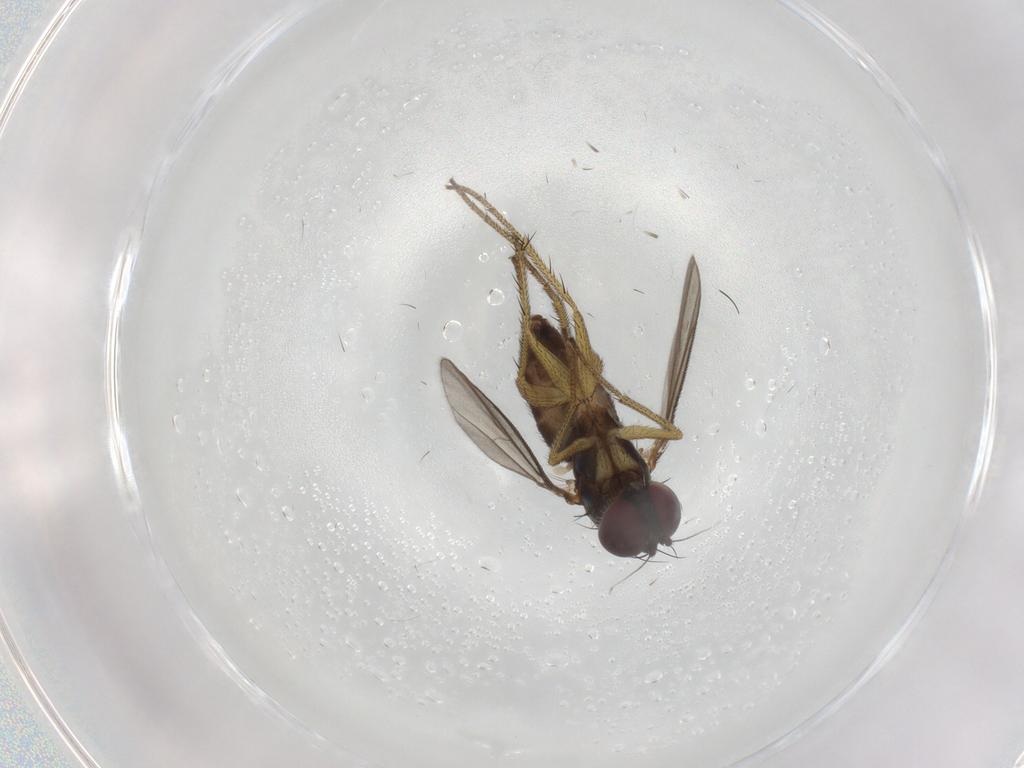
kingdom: Animalia
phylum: Arthropoda
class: Insecta
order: Diptera
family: Dolichopodidae
